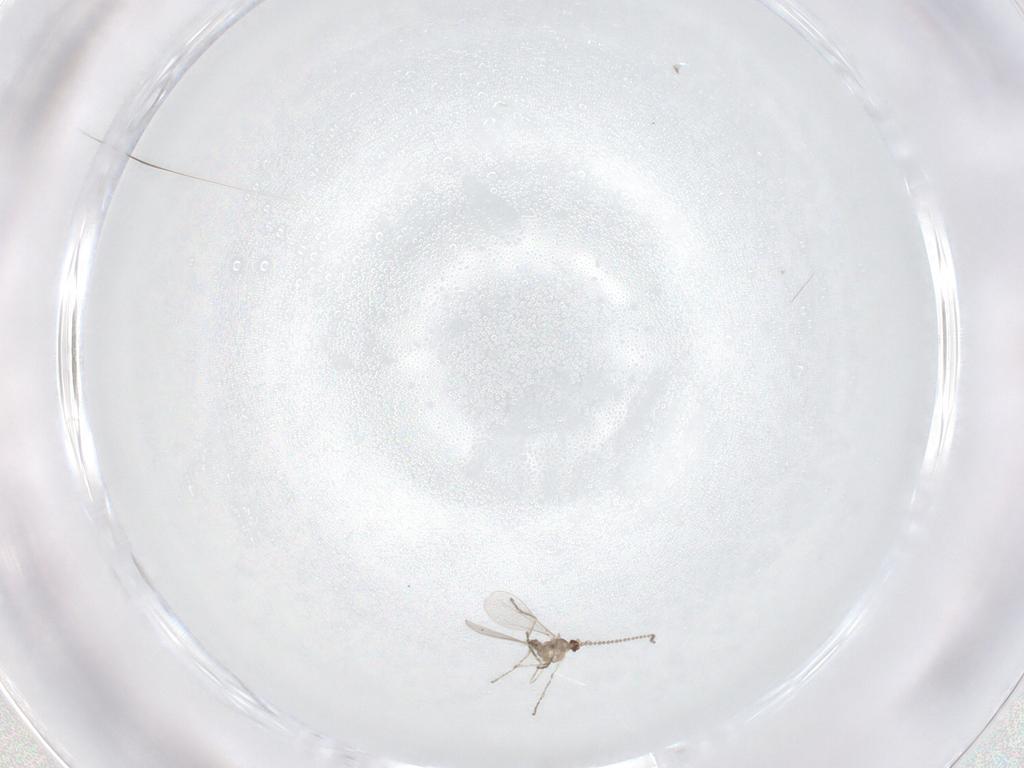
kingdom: Animalia
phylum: Arthropoda
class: Insecta
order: Diptera
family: Cecidomyiidae
